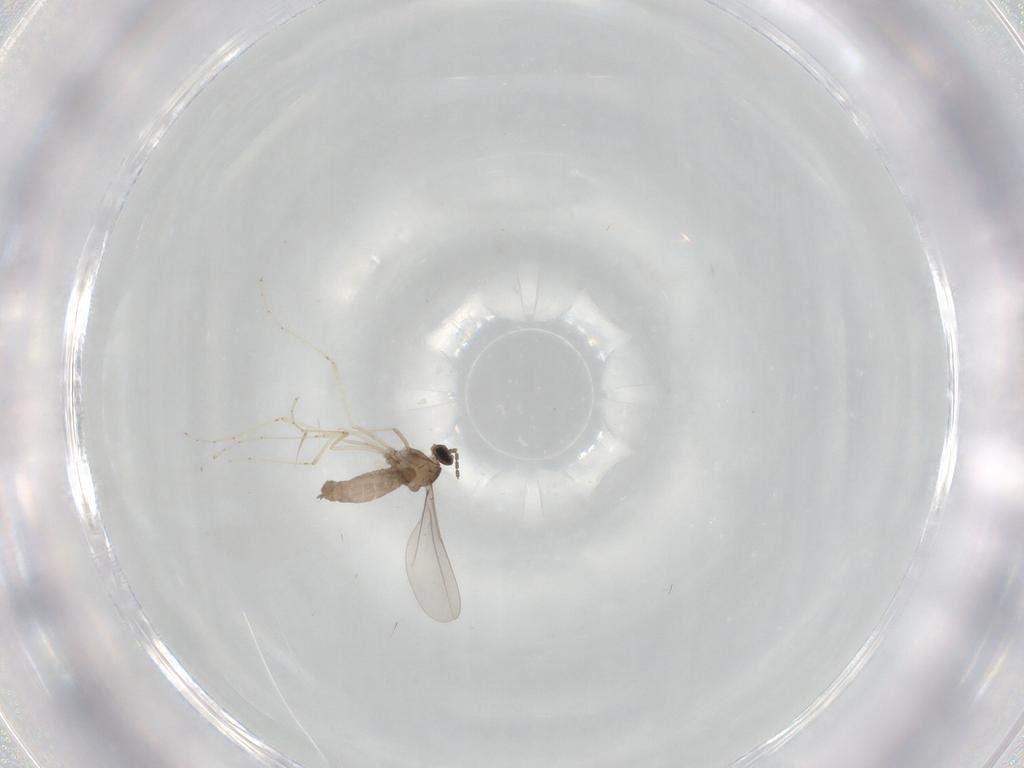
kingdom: Animalia
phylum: Arthropoda
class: Insecta
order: Diptera
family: Cecidomyiidae
